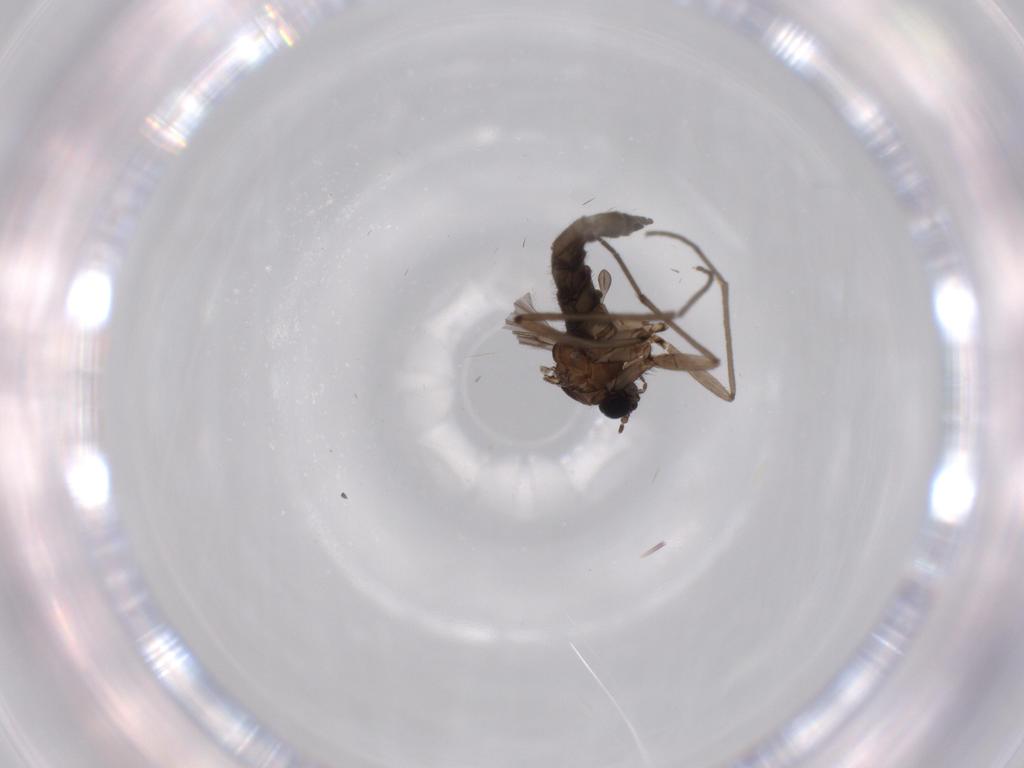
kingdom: Animalia
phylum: Arthropoda
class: Insecta
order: Diptera
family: Sciaridae
